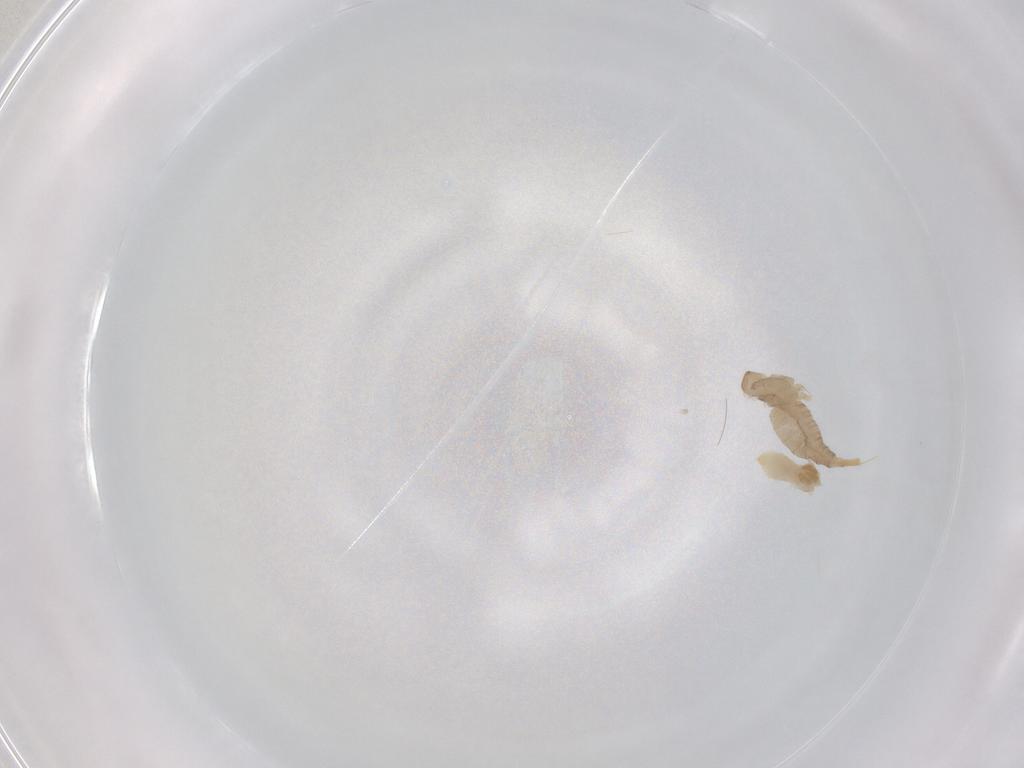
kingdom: Animalia
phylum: Arthropoda
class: Insecta
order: Diptera
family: Cecidomyiidae
